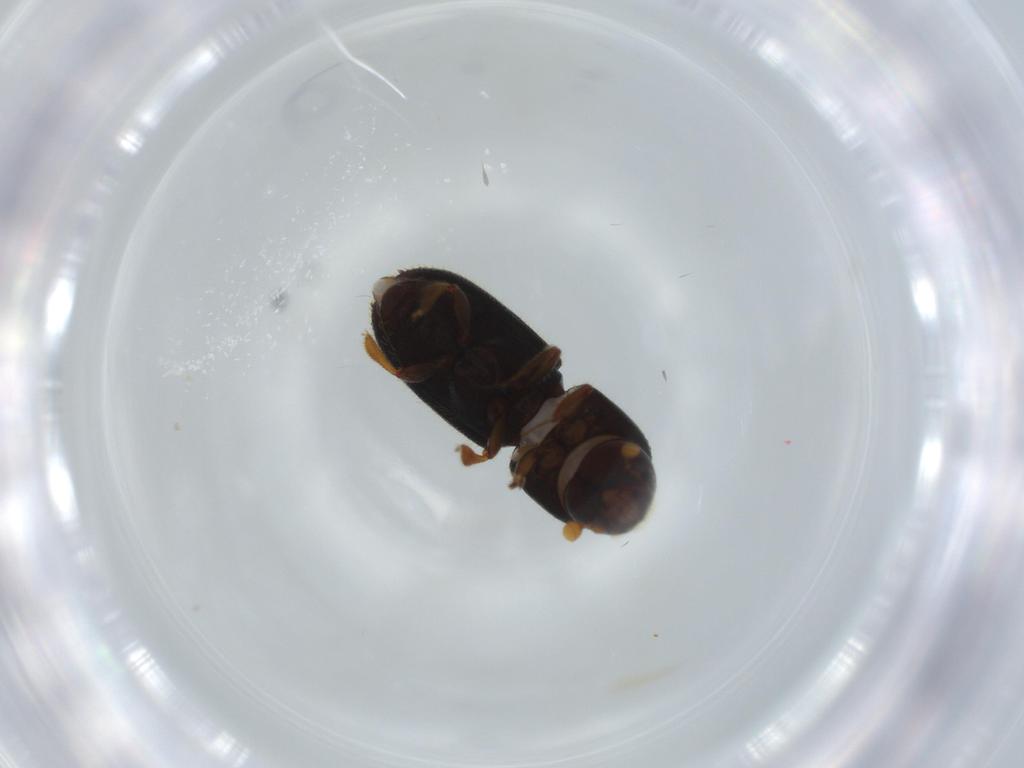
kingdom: Animalia
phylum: Arthropoda
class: Insecta
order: Coleoptera
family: Curculionidae
